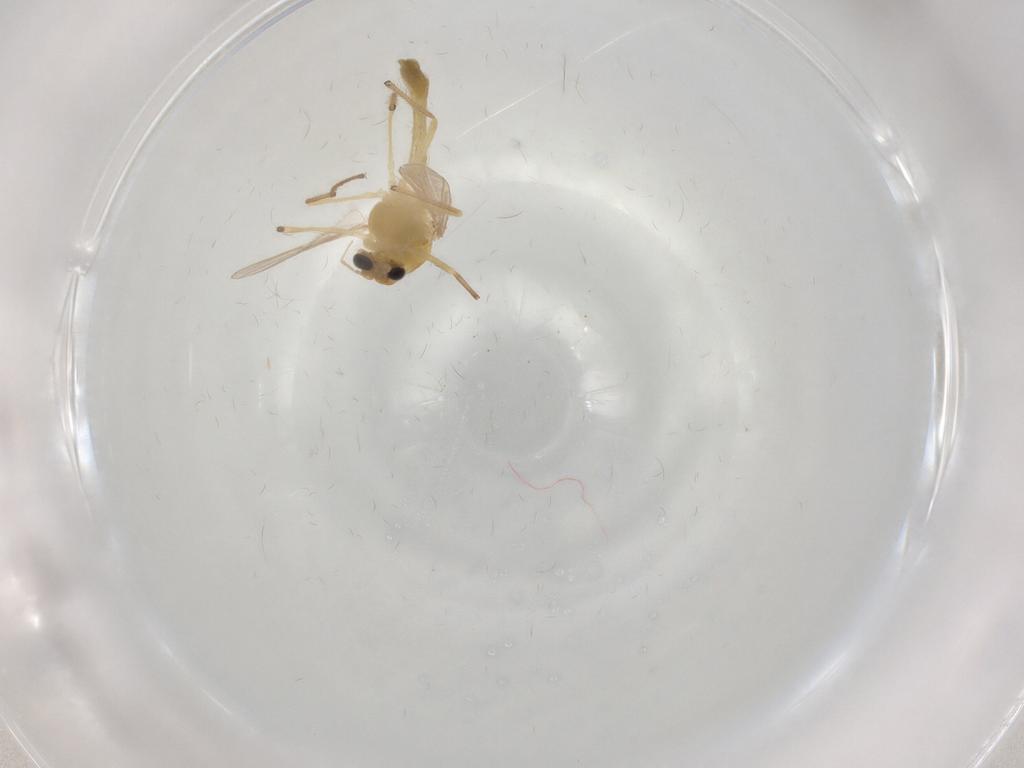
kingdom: Animalia
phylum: Arthropoda
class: Insecta
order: Diptera
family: Chironomidae
